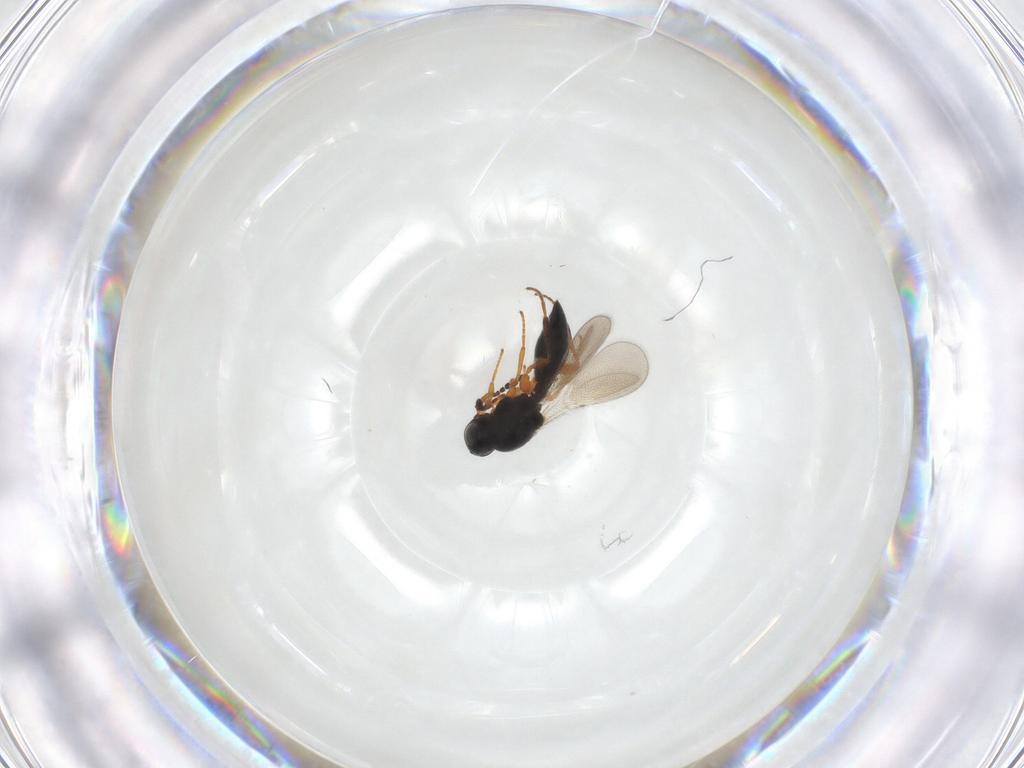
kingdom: Animalia
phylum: Arthropoda
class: Insecta
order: Hymenoptera
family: Platygastridae
